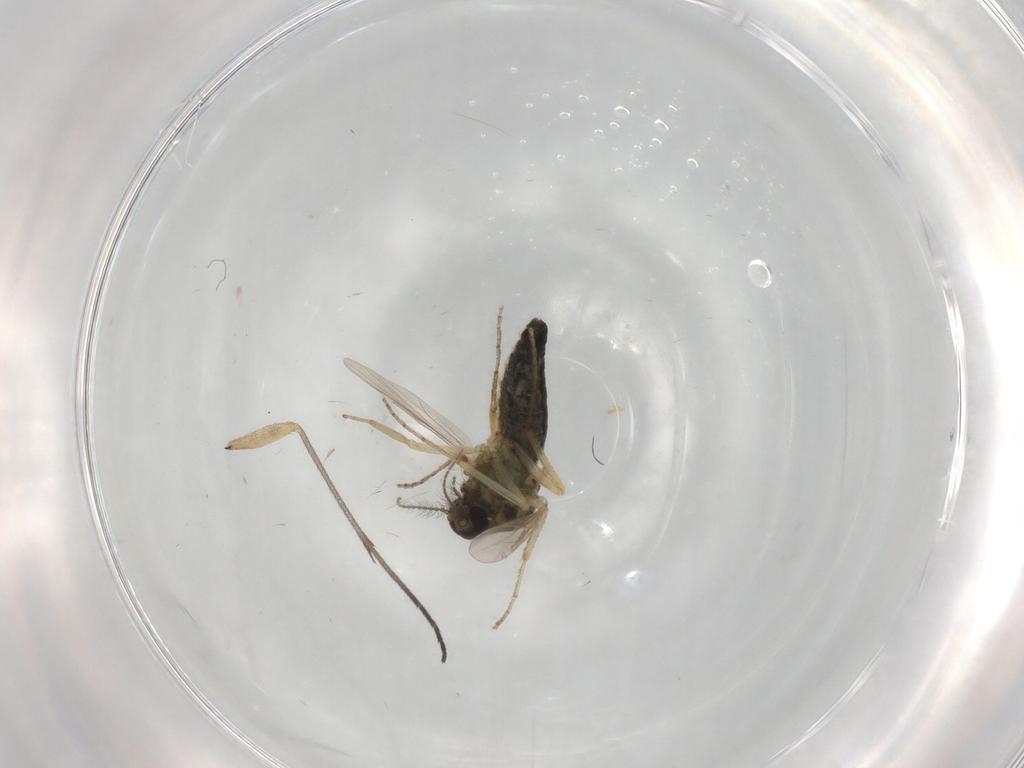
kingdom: Animalia
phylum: Arthropoda
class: Insecta
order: Diptera
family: Ceratopogonidae
